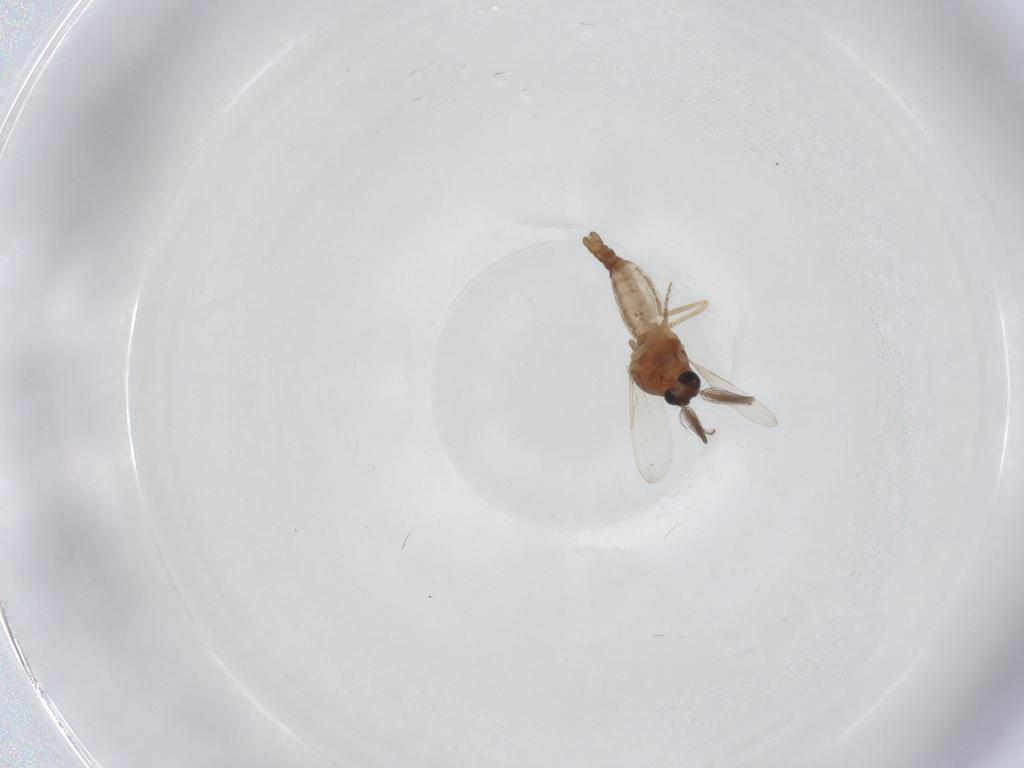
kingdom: Animalia
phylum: Arthropoda
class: Insecta
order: Diptera
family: Ceratopogonidae
